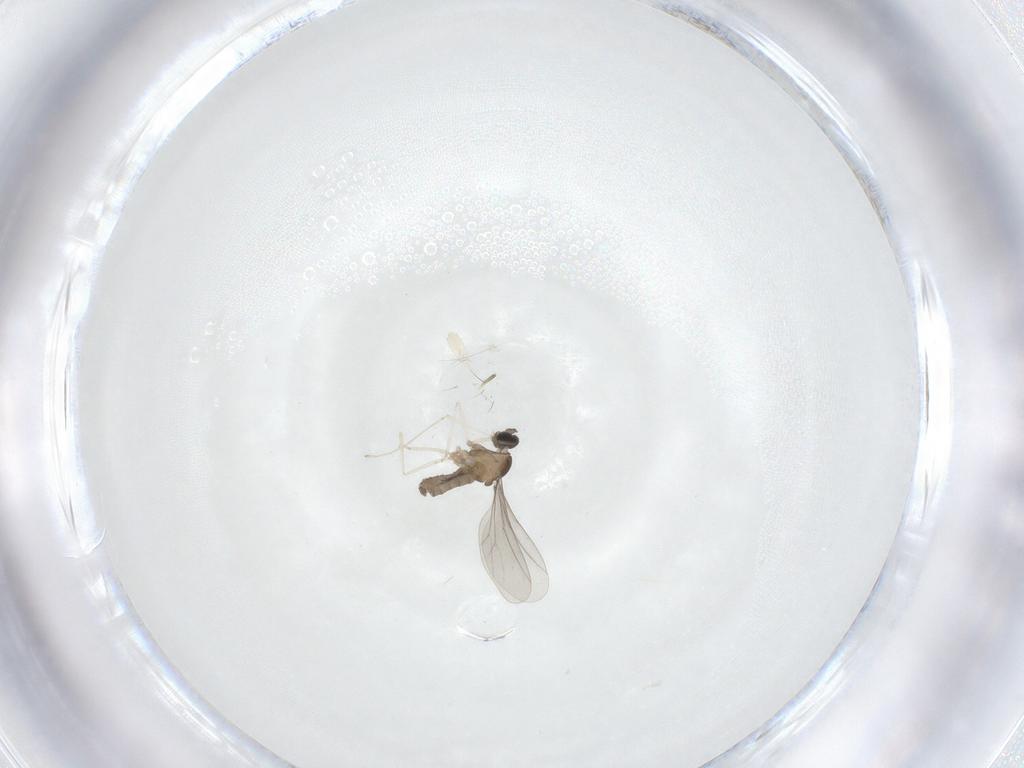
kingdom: Animalia
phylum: Arthropoda
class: Insecta
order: Diptera
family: Cecidomyiidae
